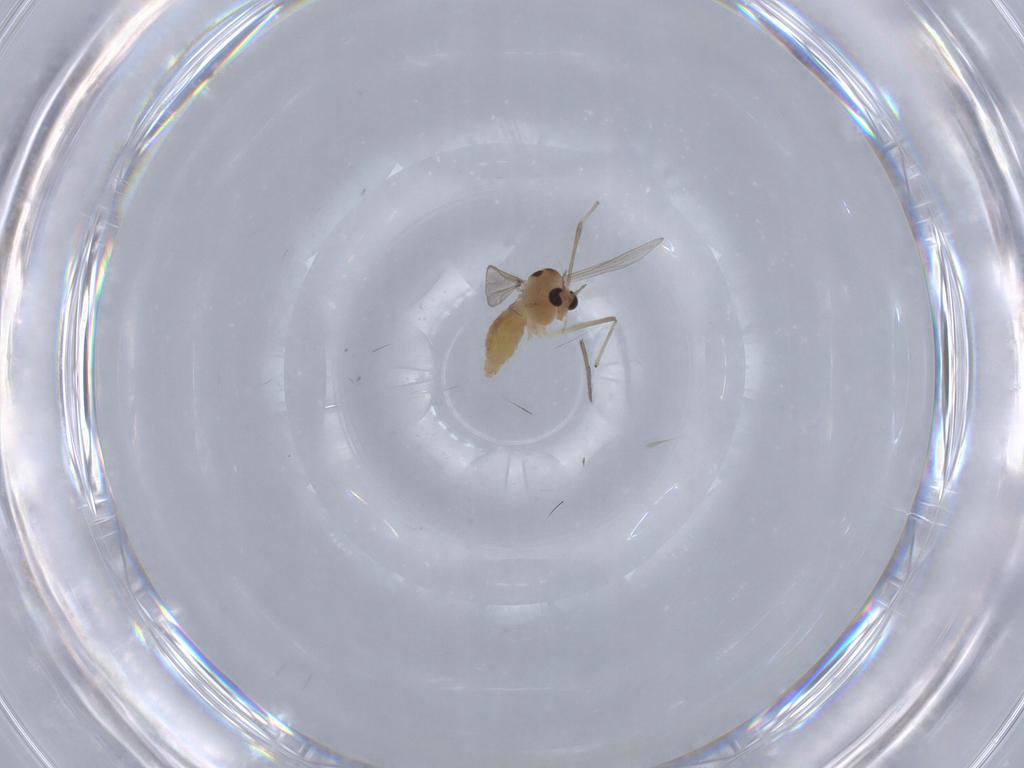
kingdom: Animalia
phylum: Arthropoda
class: Insecta
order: Diptera
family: Chironomidae
